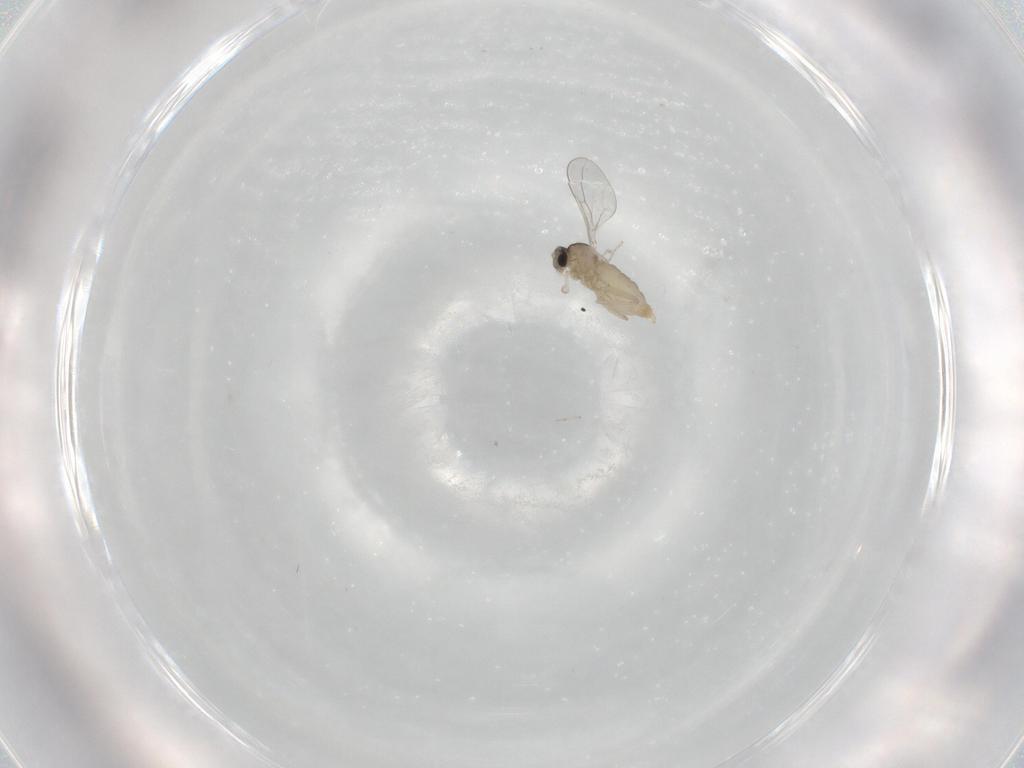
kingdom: Animalia
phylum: Arthropoda
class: Insecta
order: Diptera
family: Cecidomyiidae
